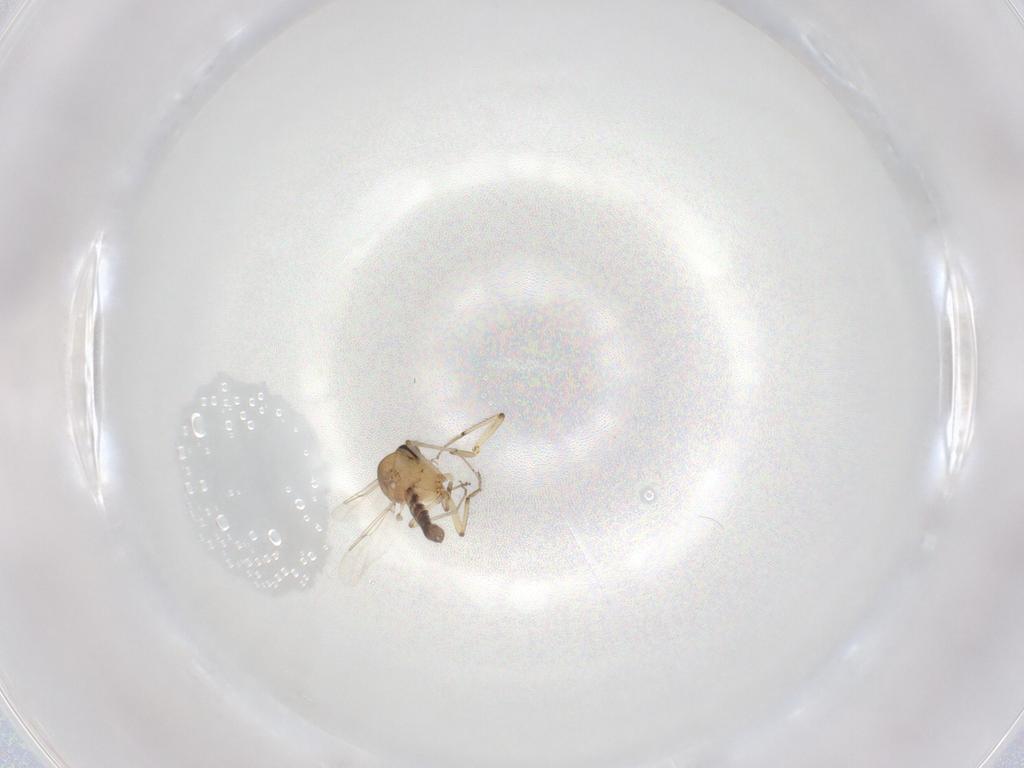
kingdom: Animalia
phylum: Arthropoda
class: Insecta
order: Diptera
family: Ceratopogonidae
